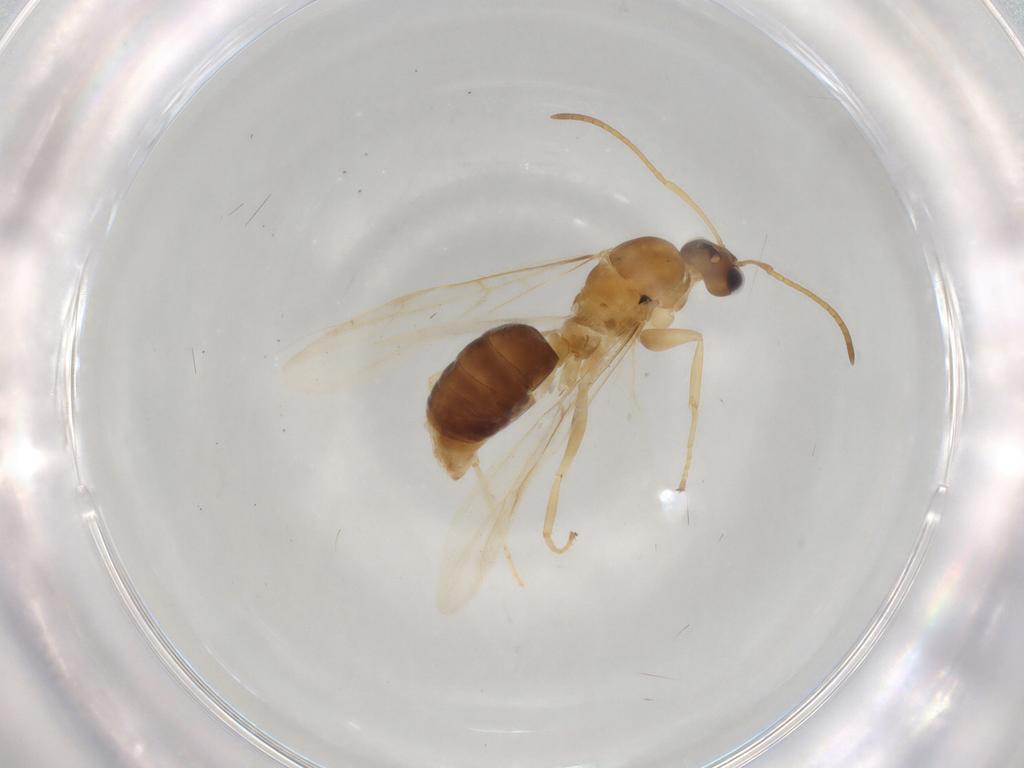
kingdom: Animalia
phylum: Arthropoda
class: Insecta
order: Hymenoptera
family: Formicidae
